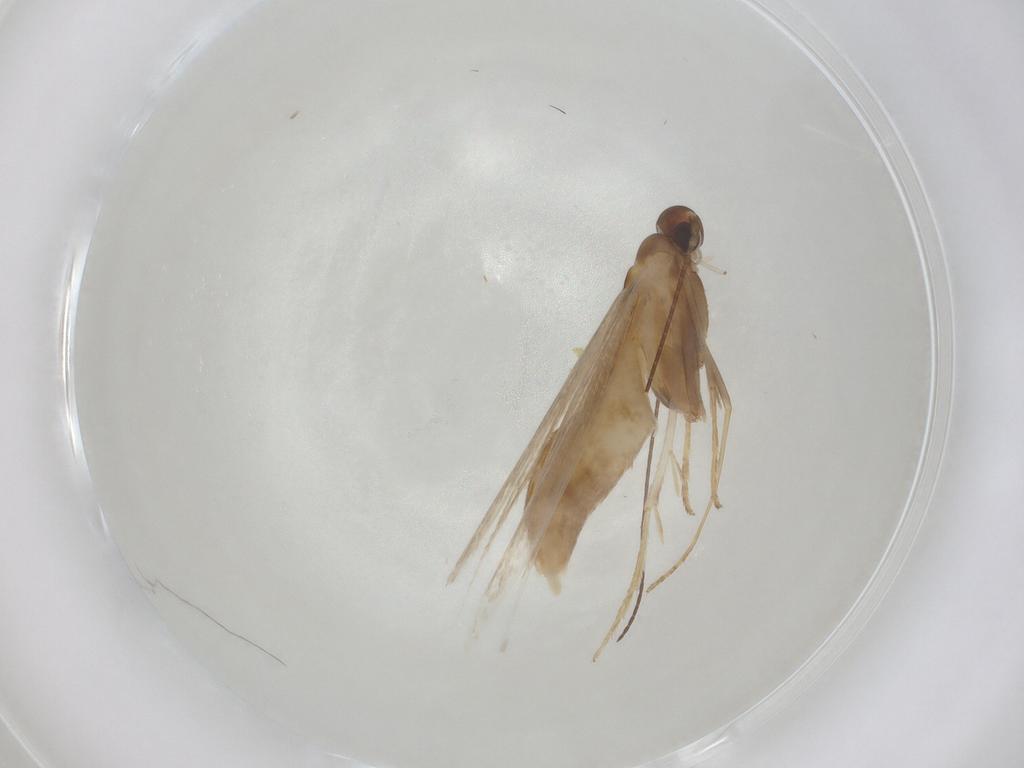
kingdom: Animalia
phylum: Arthropoda
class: Insecta
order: Lepidoptera
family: Coleophoridae
